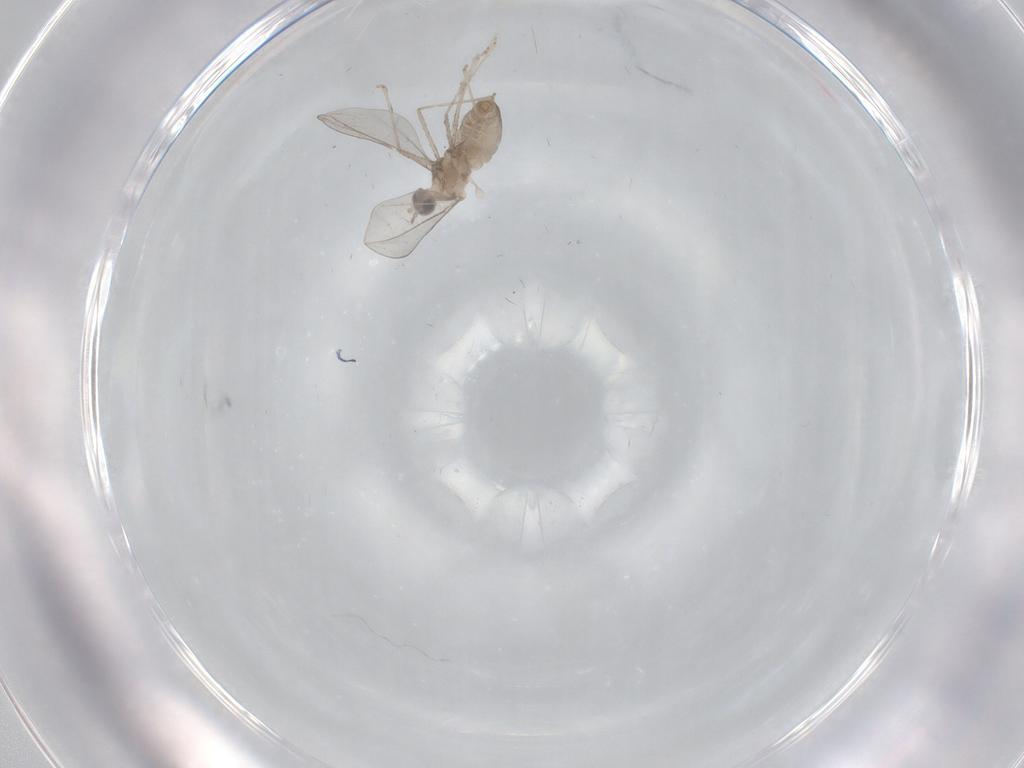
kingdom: Animalia
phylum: Arthropoda
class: Insecta
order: Diptera
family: Cecidomyiidae
